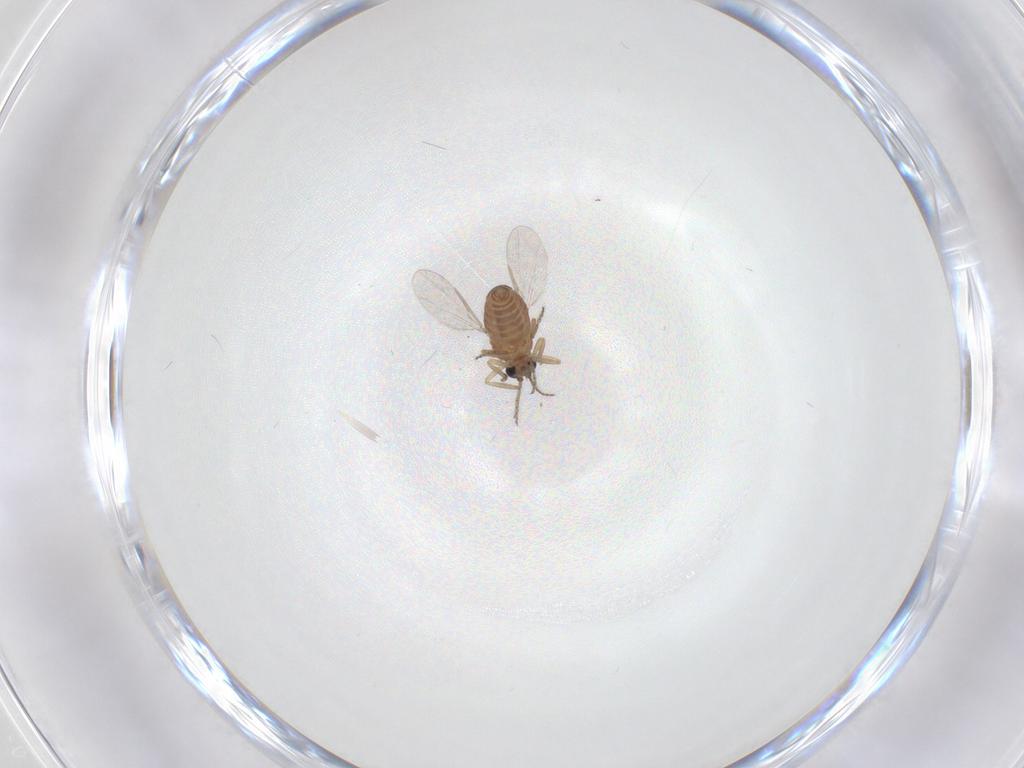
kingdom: Animalia
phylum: Arthropoda
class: Insecta
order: Diptera
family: Ceratopogonidae
